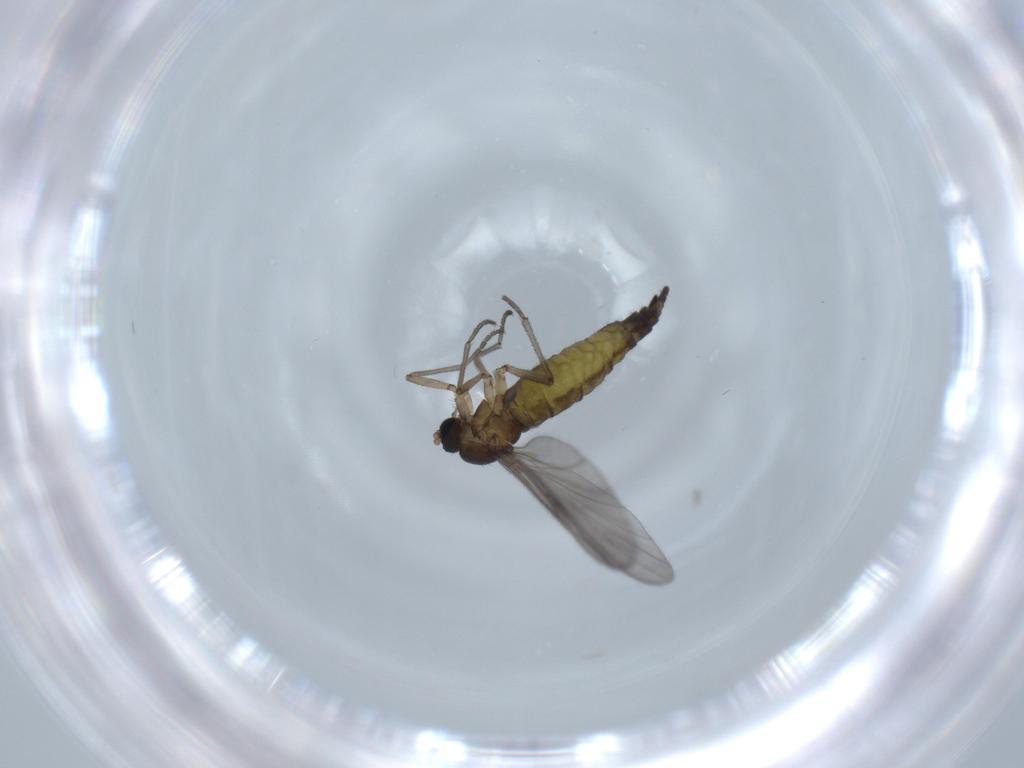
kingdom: Animalia
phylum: Arthropoda
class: Insecta
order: Diptera
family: Sciaridae
